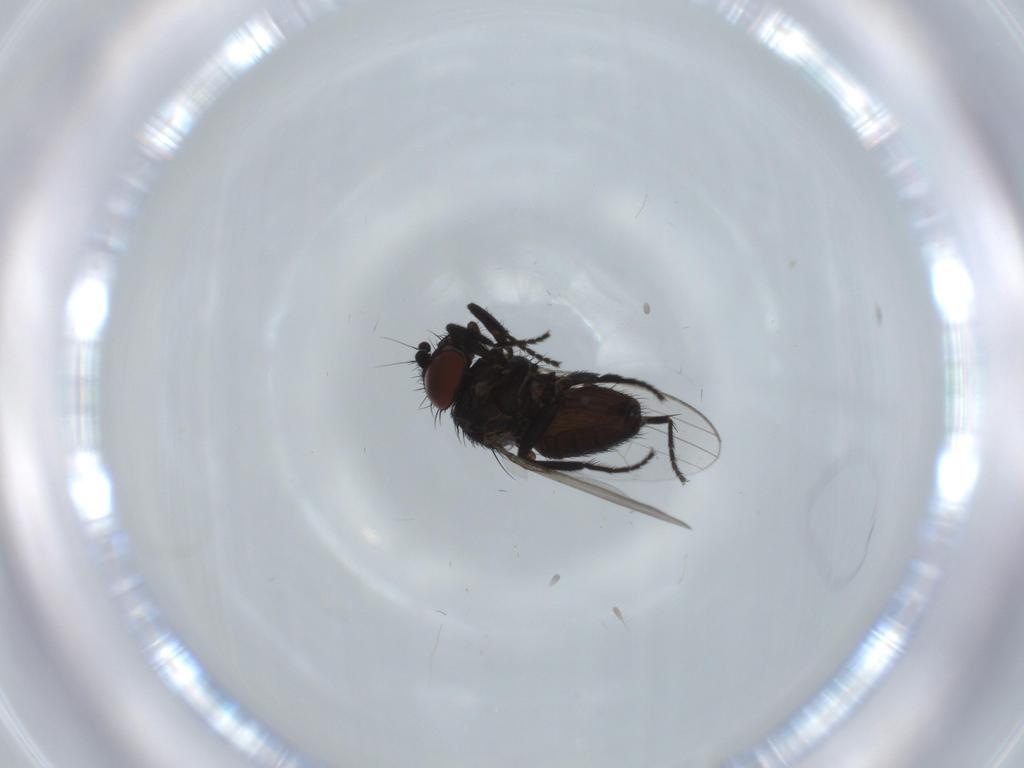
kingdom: Animalia
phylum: Arthropoda
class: Insecta
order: Diptera
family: Milichiidae
